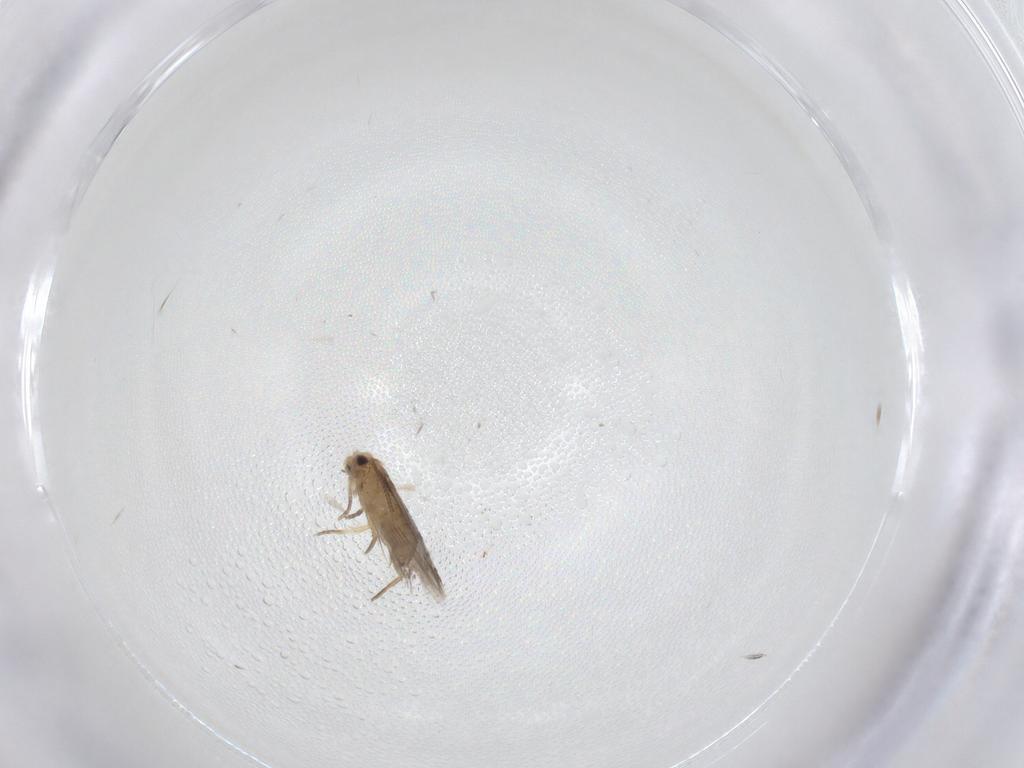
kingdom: Animalia
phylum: Arthropoda
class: Insecta
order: Lepidoptera
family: Nepticulidae
